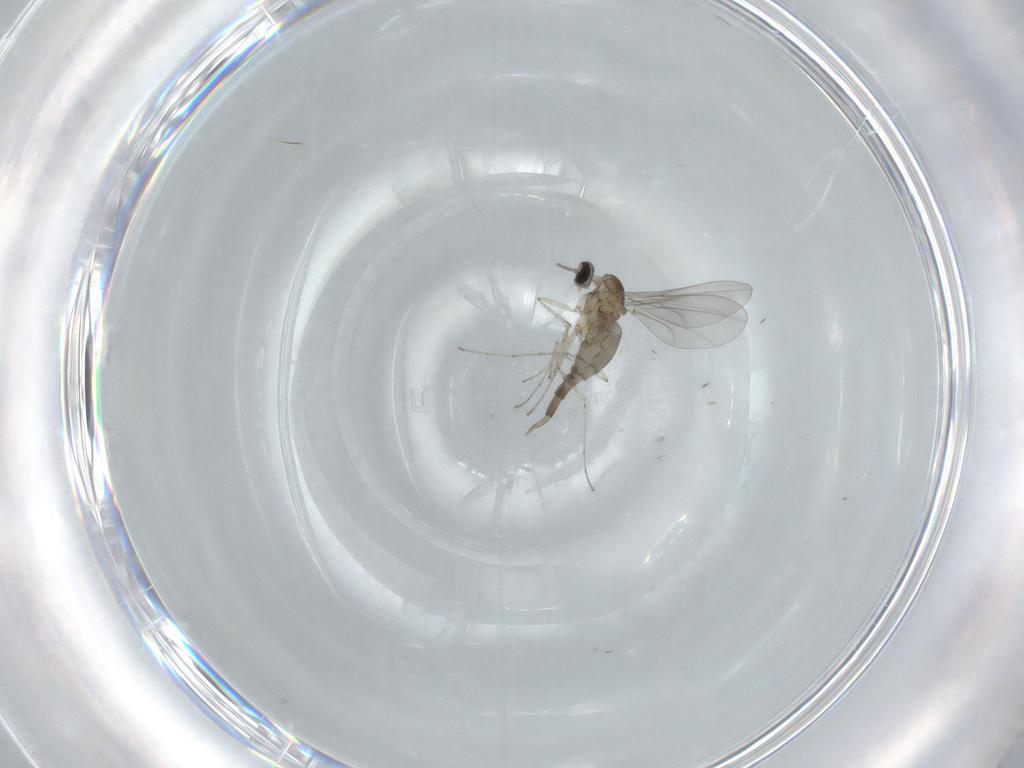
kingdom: Animalia
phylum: Arthropoda
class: Insecta
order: Diptera
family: Cecidomyiidae
